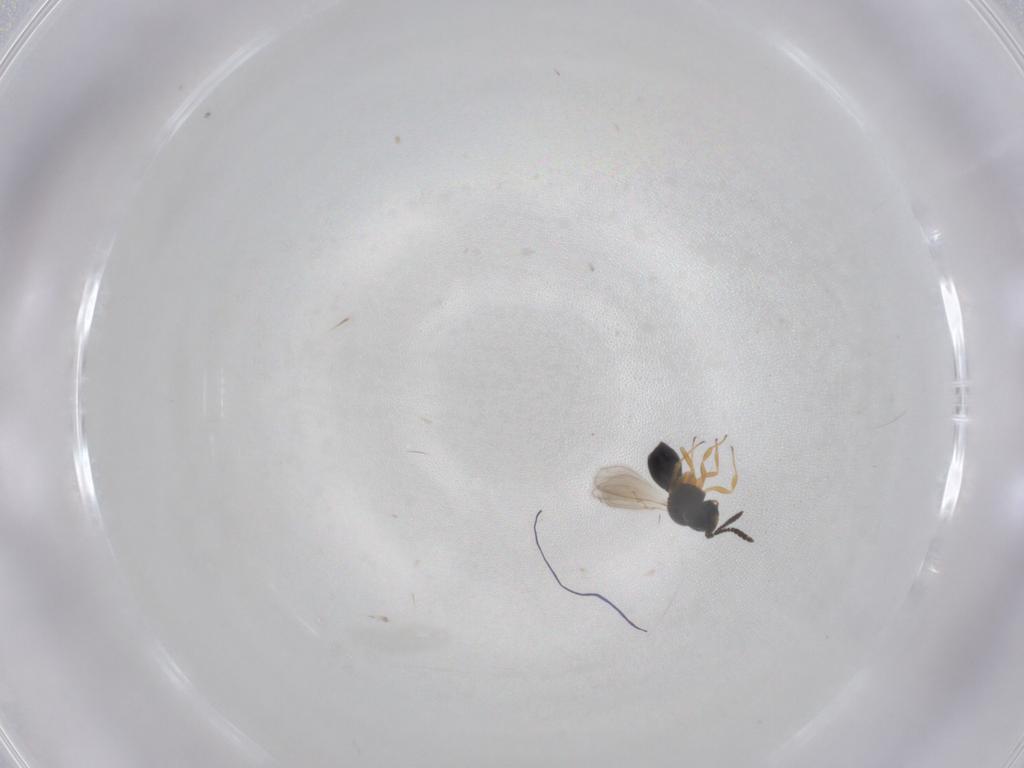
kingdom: Animalia
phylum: Arthropoda
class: Insecta
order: Hymenoptera
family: Scelionidae
